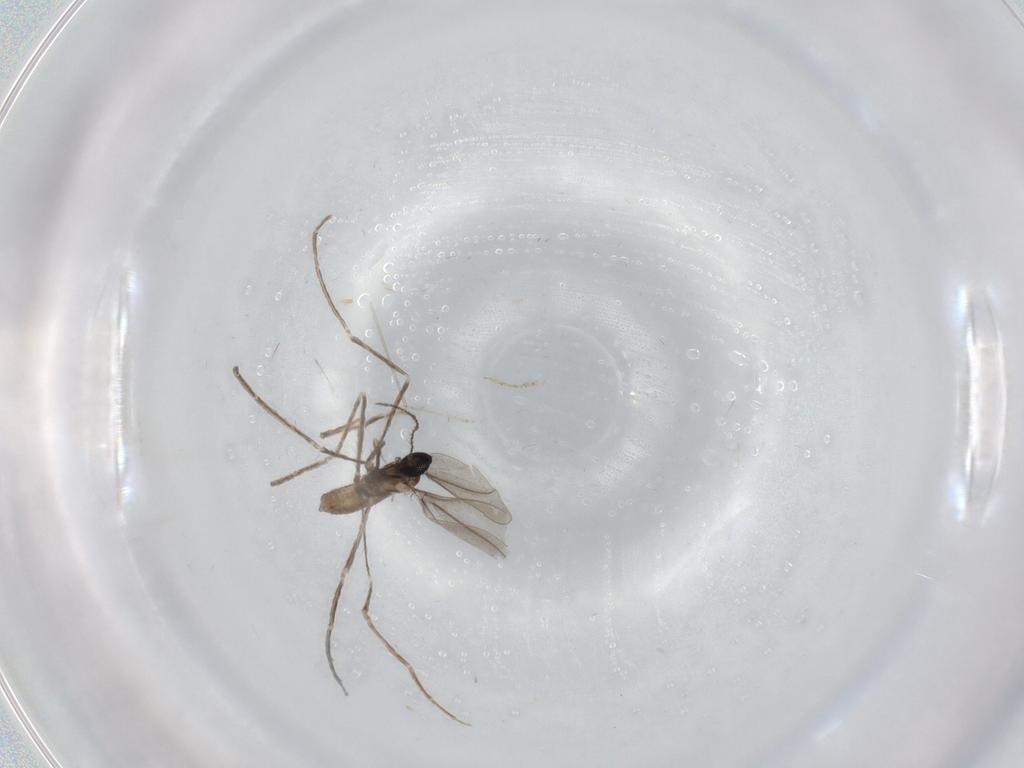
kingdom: Animalia
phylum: Arthropoda
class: Insecta
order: Diptera
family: Cecidomyiidae
